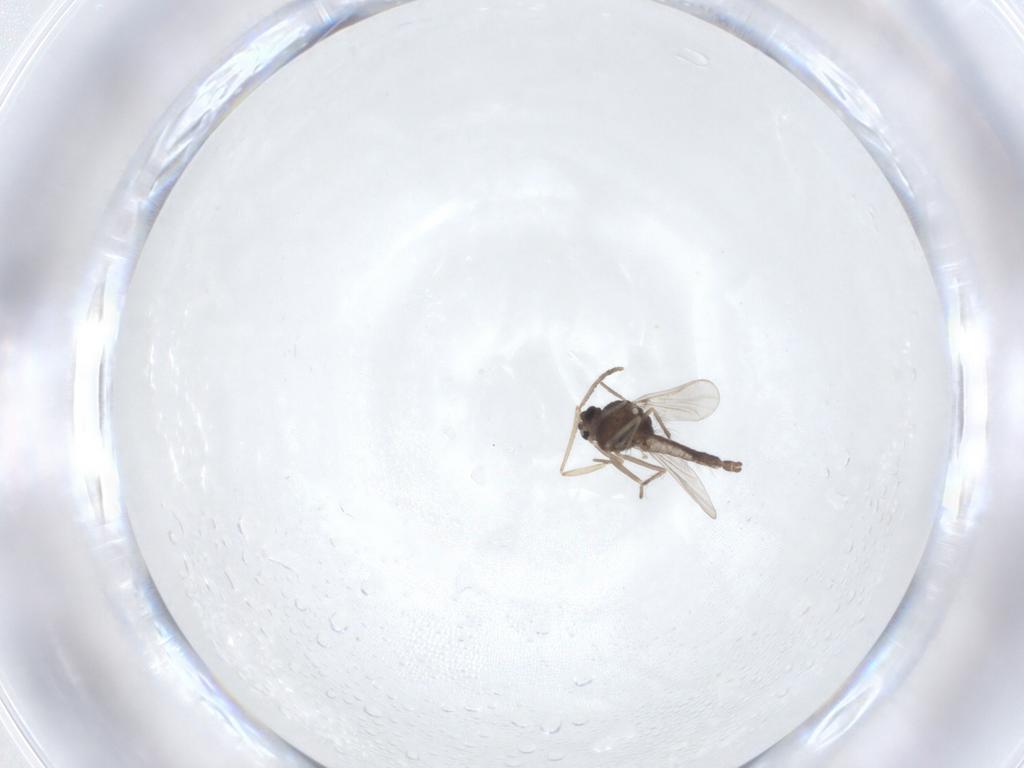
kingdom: Animalia
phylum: Arthropoda
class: Insecta
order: Diptera
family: Chironomidae
